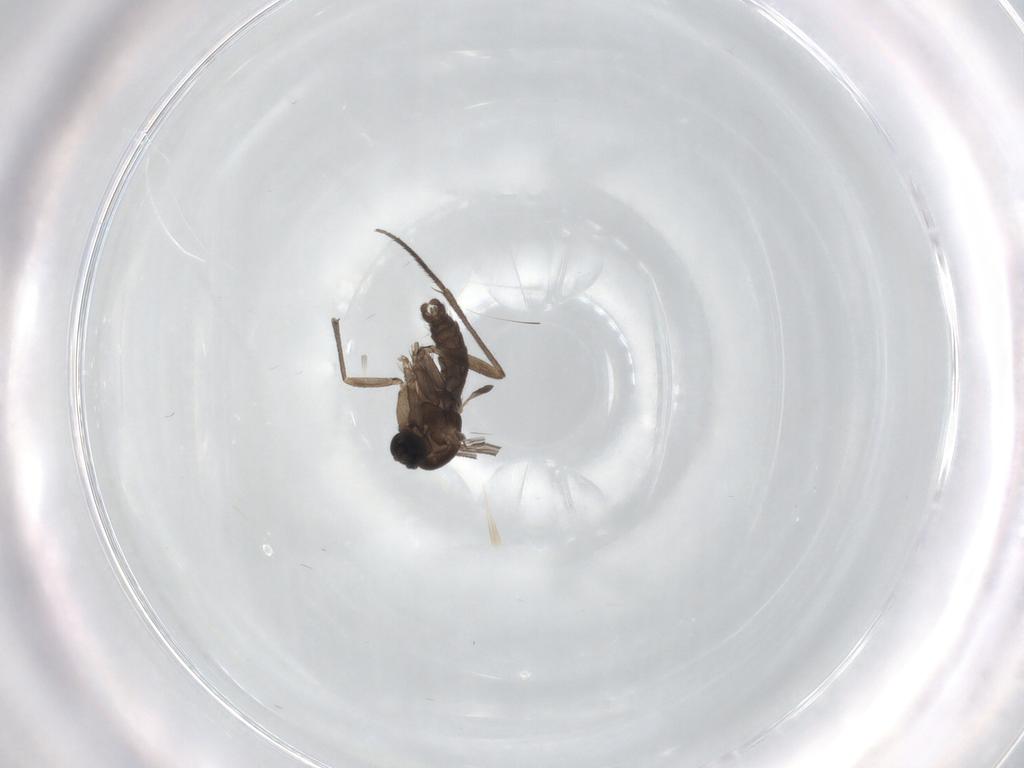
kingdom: Animalia
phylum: Arthropoda
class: Insecta
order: Diptera
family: Sciaridae
